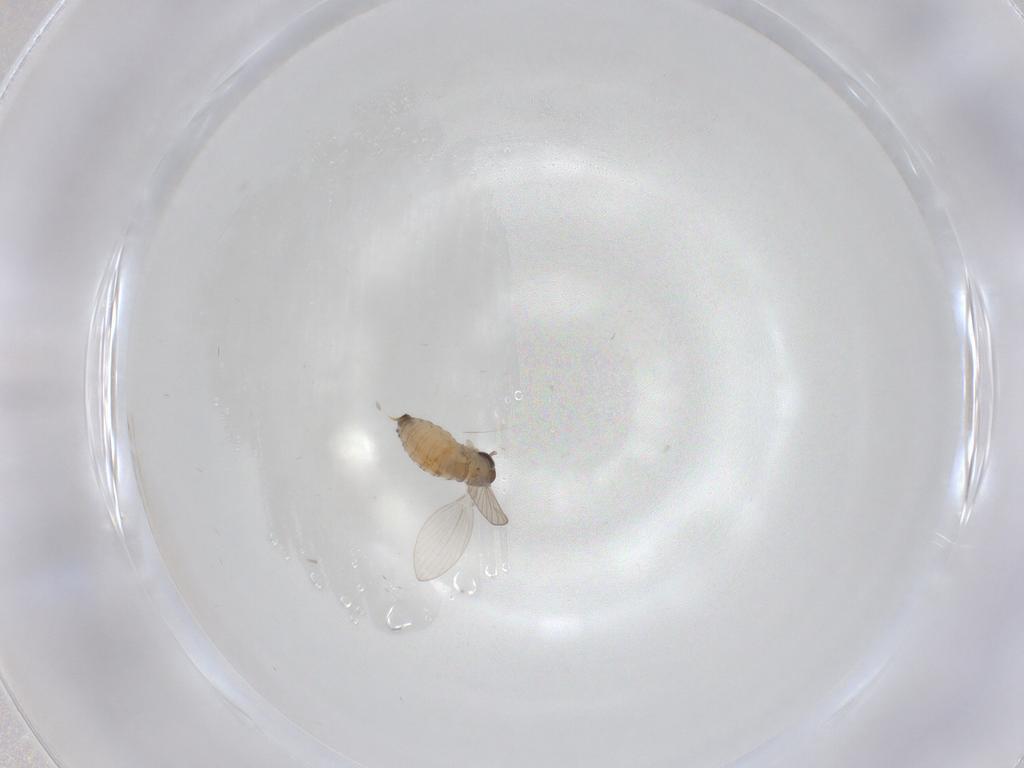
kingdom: Animalia
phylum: Arthropoda
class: Insecta
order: Diptera
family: Psychodidae
